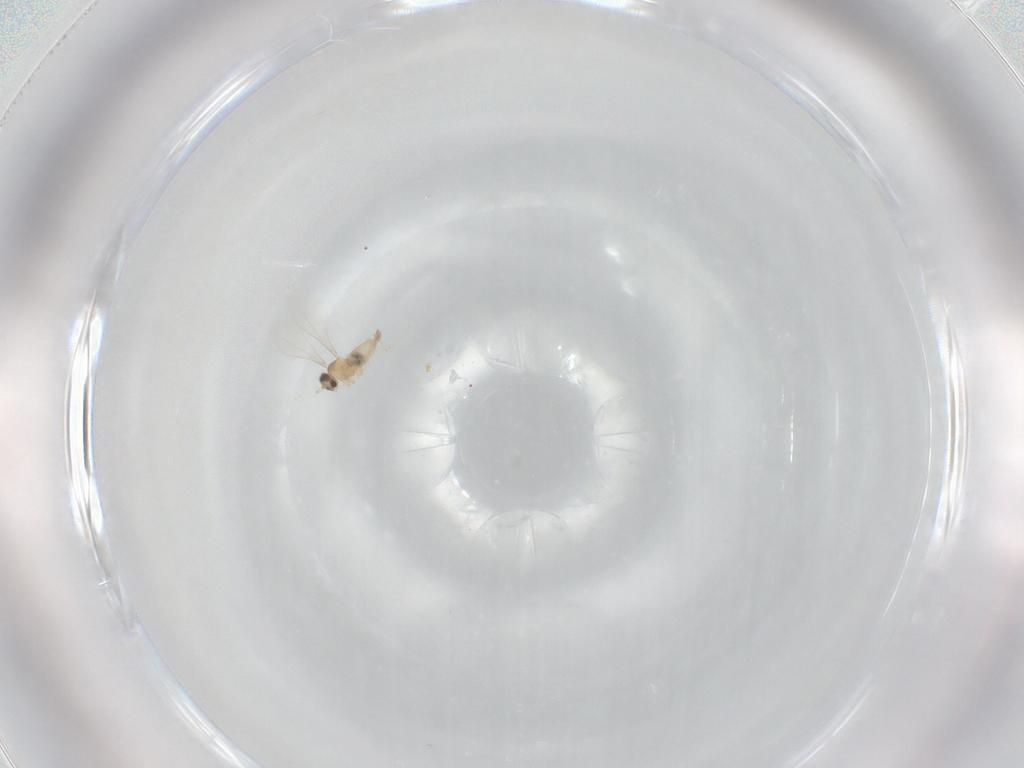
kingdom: Animalia
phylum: Arthropoda
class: Insecta
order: Diptera
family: Cecidomyiidae
